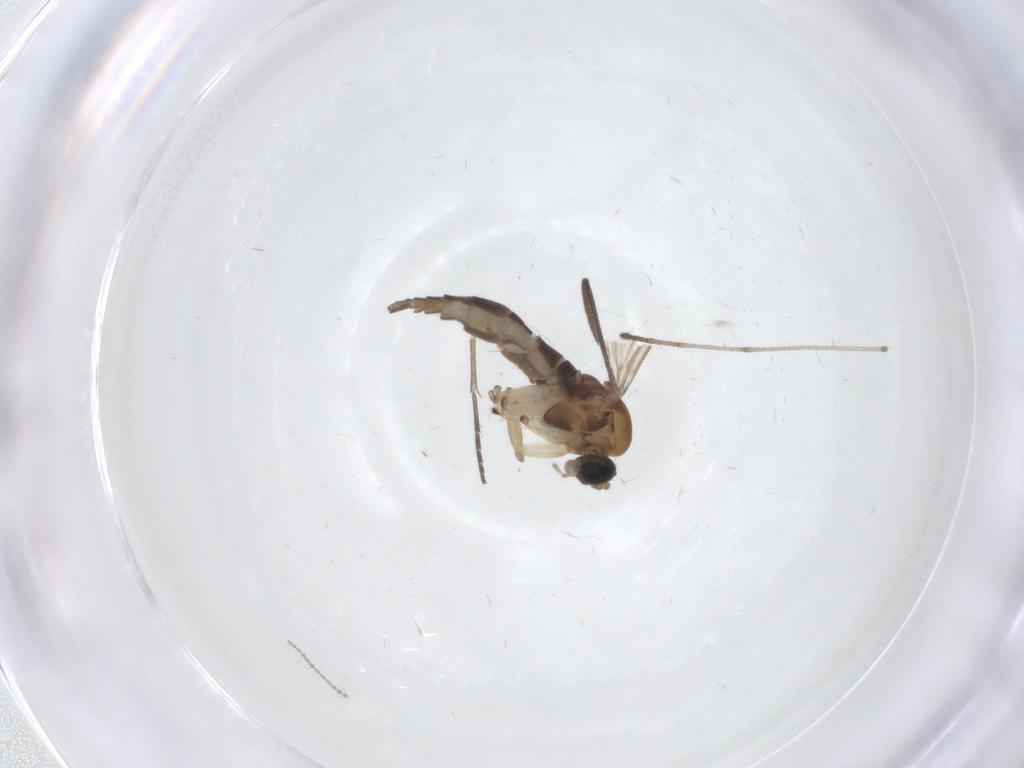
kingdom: Animalia
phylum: Arthropoda
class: Insecta
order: Diptera
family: Sciaridae
